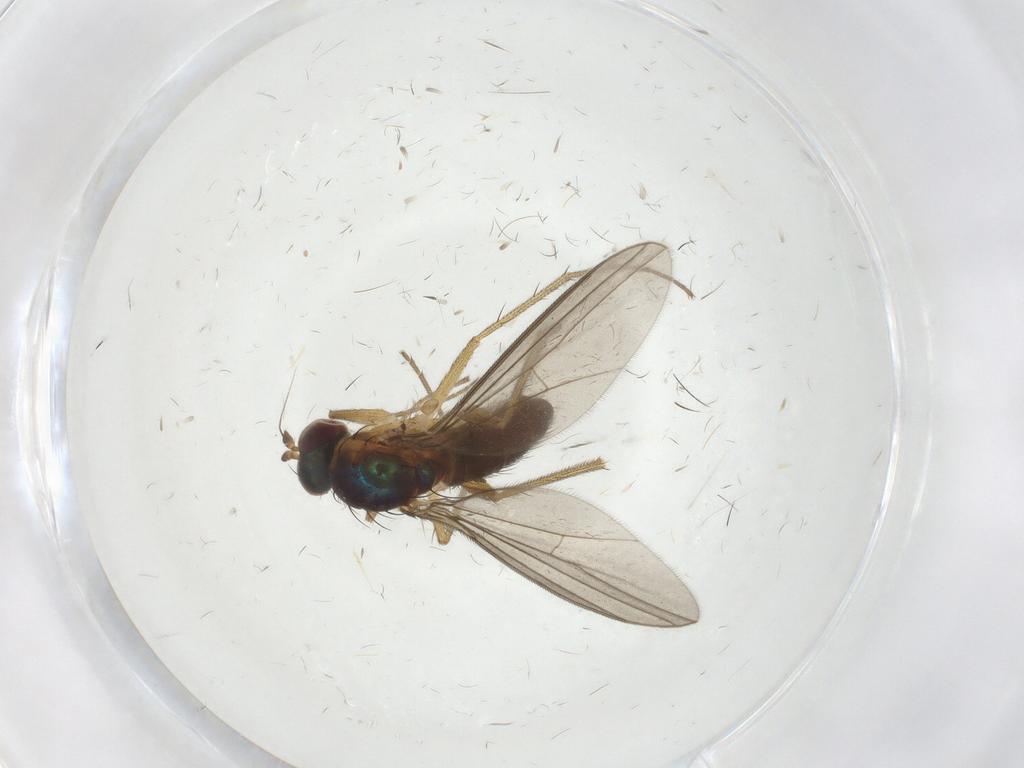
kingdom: Animalia
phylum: Arthropoda
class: Insecta
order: Diptera
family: Dolichopodidae
